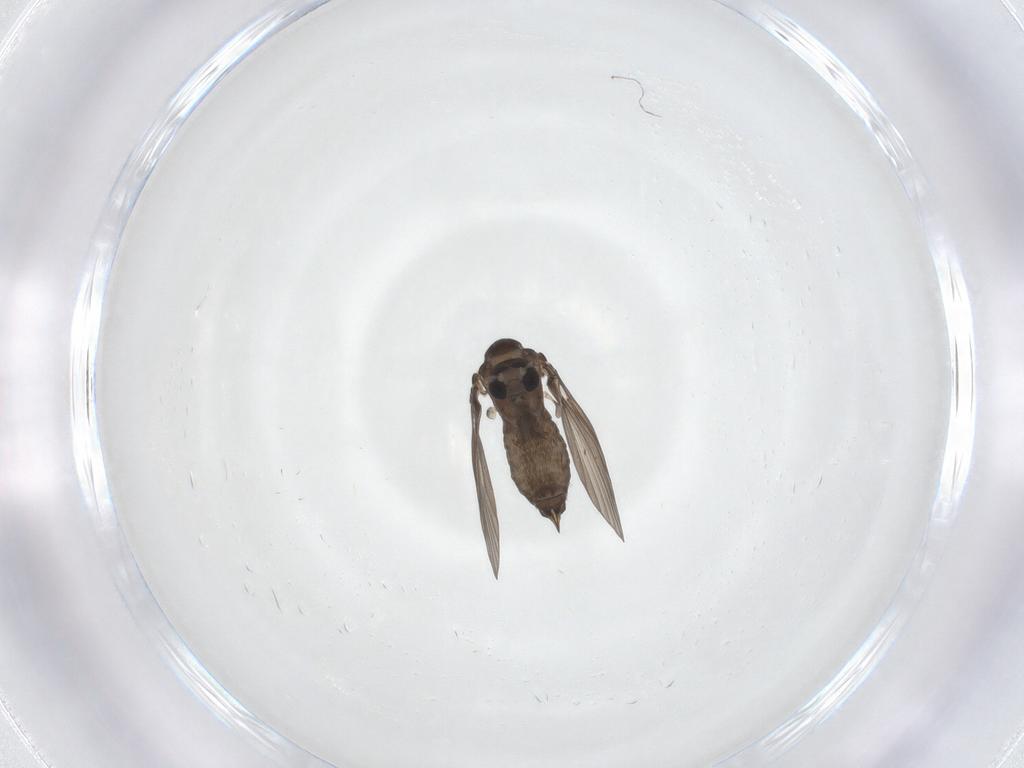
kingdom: Animalia
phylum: Arthropoda
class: Insecta
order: Diptera
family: Psychodidae
